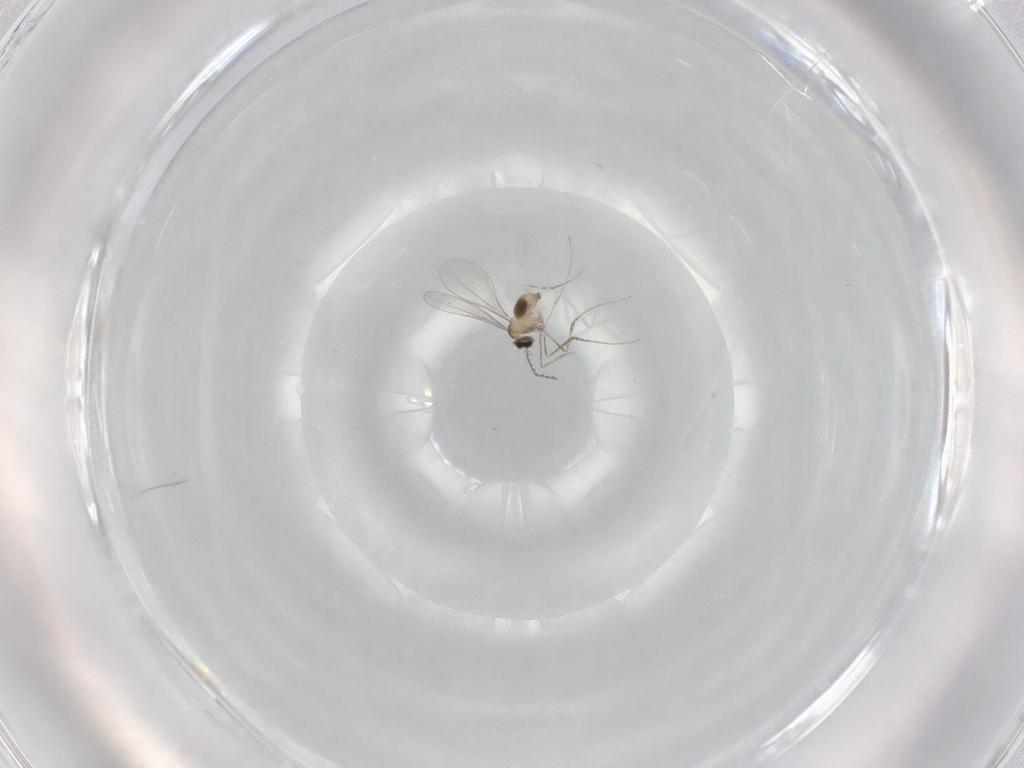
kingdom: Animalia
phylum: Arthropoda
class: Insecta
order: Diptera
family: Cecidomyiidae
